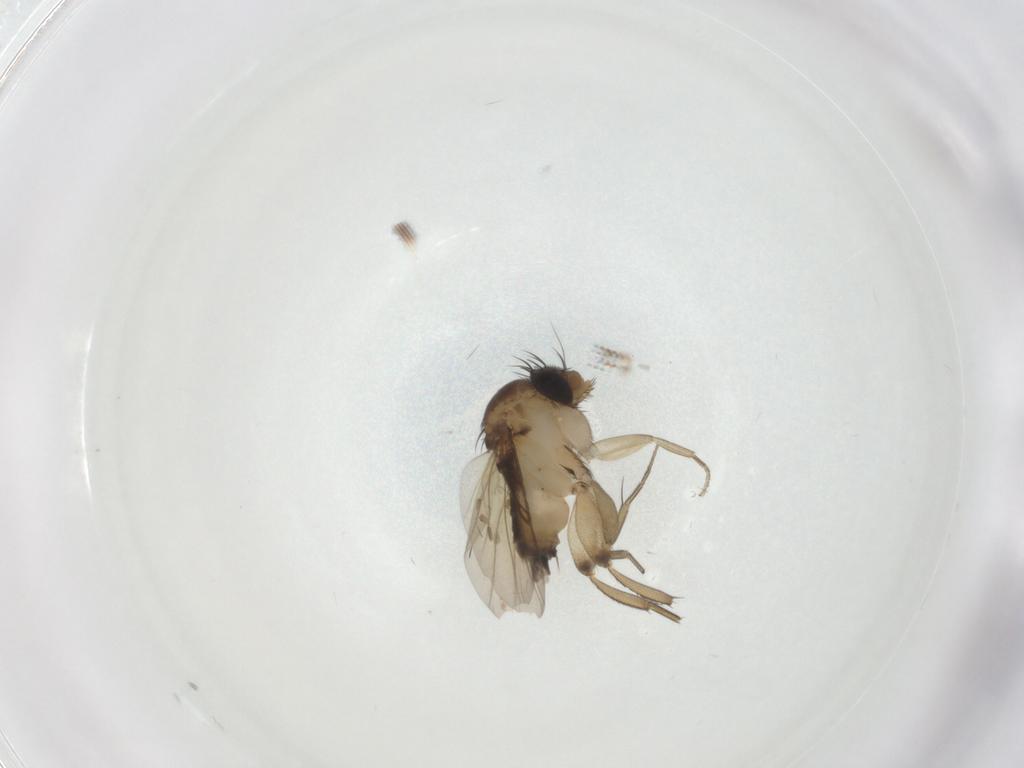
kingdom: Animalia
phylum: Arthropoda
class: Insecta
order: Diptera
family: Phoridae
